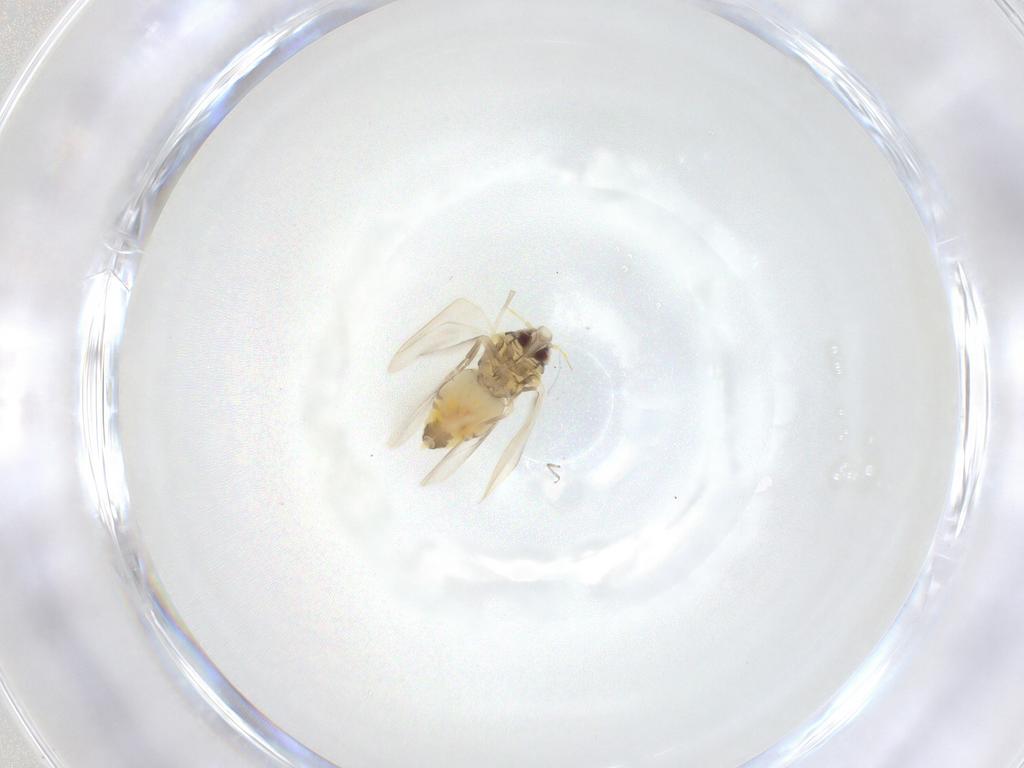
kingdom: Animalia
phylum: Arthropoda
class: Insecta
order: Hemiptera
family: Aleyrodidae
